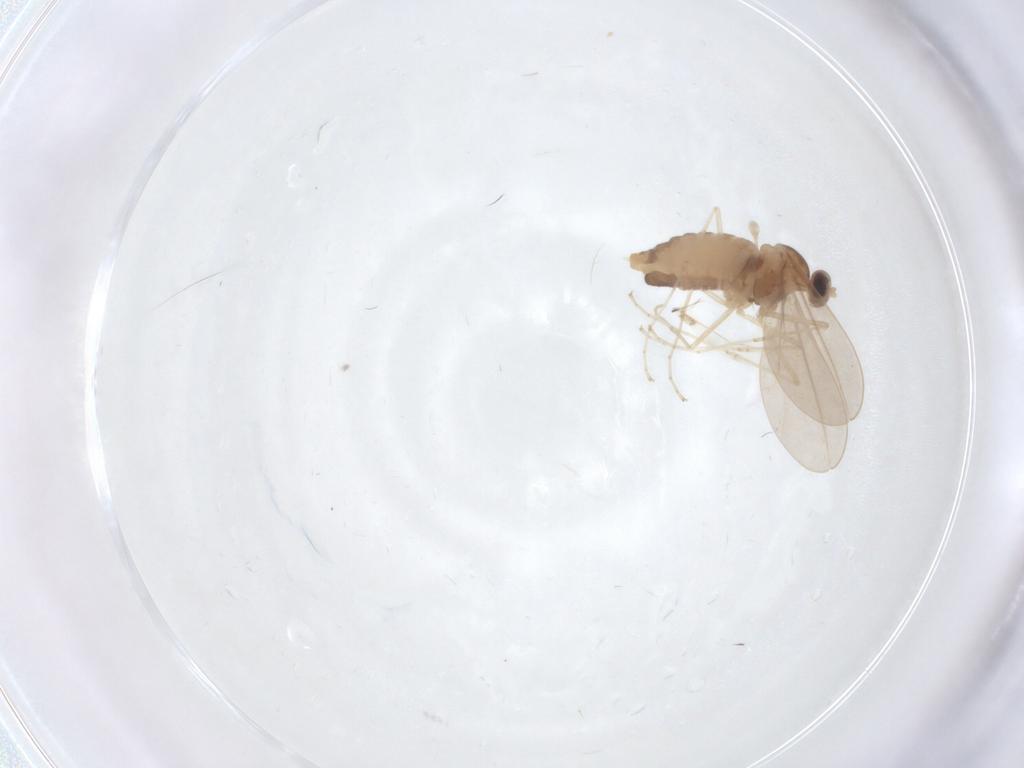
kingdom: Animalia
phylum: Arthropoda
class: Insecta
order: Diptera
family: Cecidomyiidae
